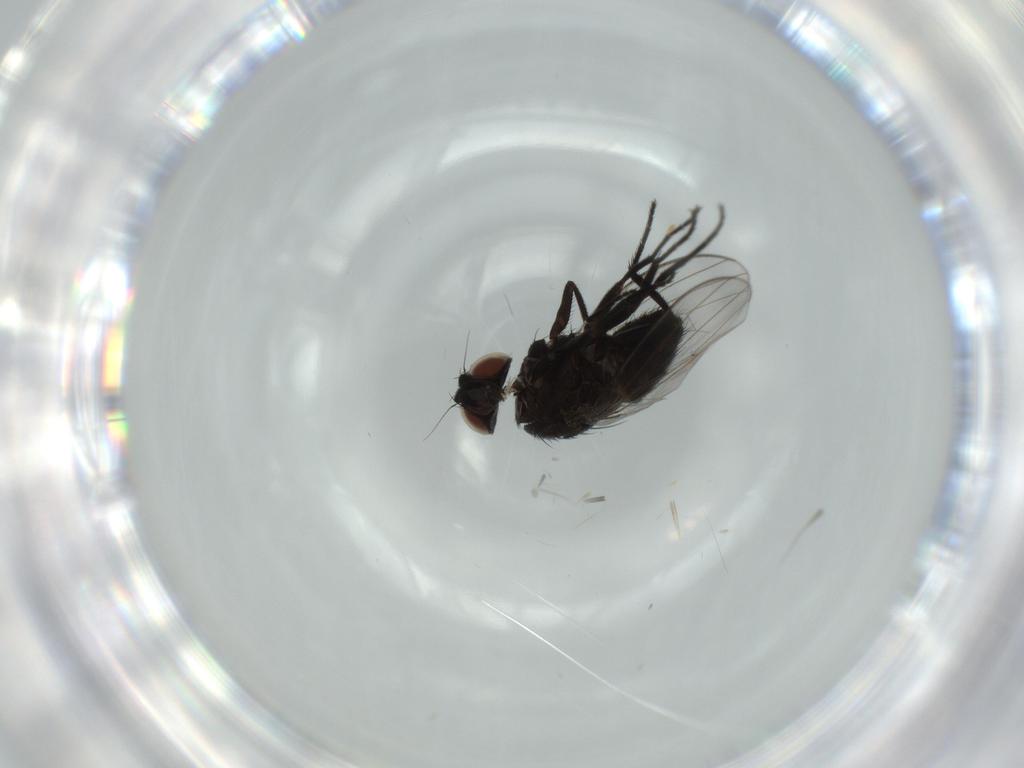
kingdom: Animalia
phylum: Arthropoda
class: Insecta
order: Diptera
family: Milichiidae
